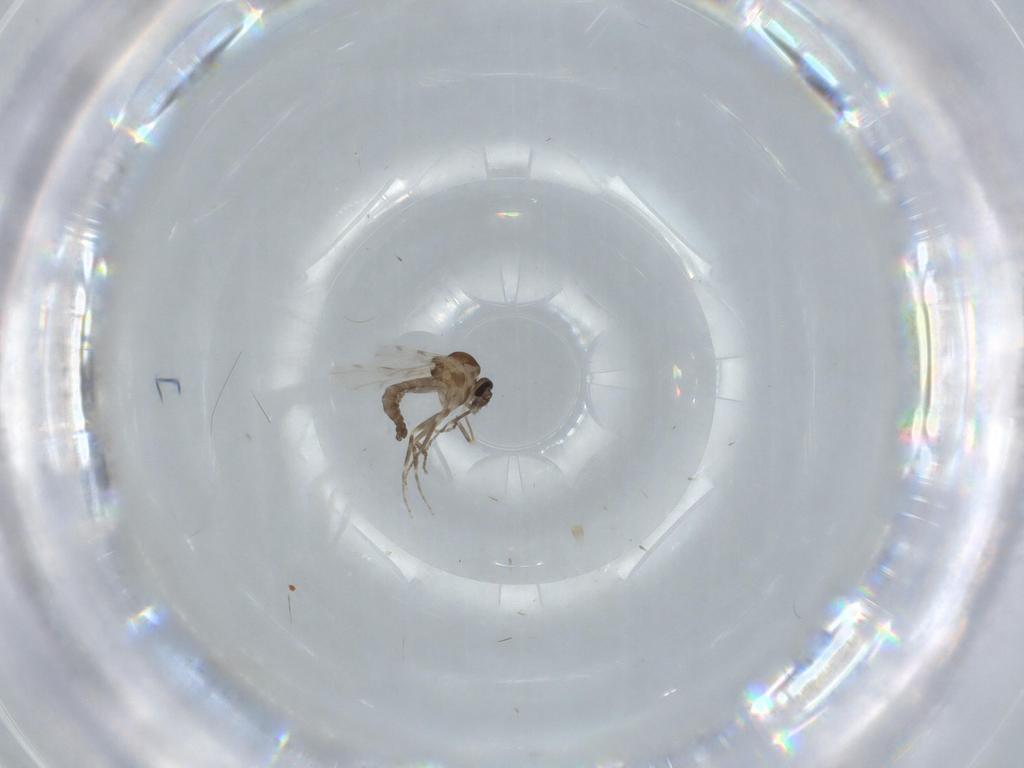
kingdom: Animalia
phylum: Arthropoda
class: Insecta
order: Diptera
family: Ceratopogonidae
